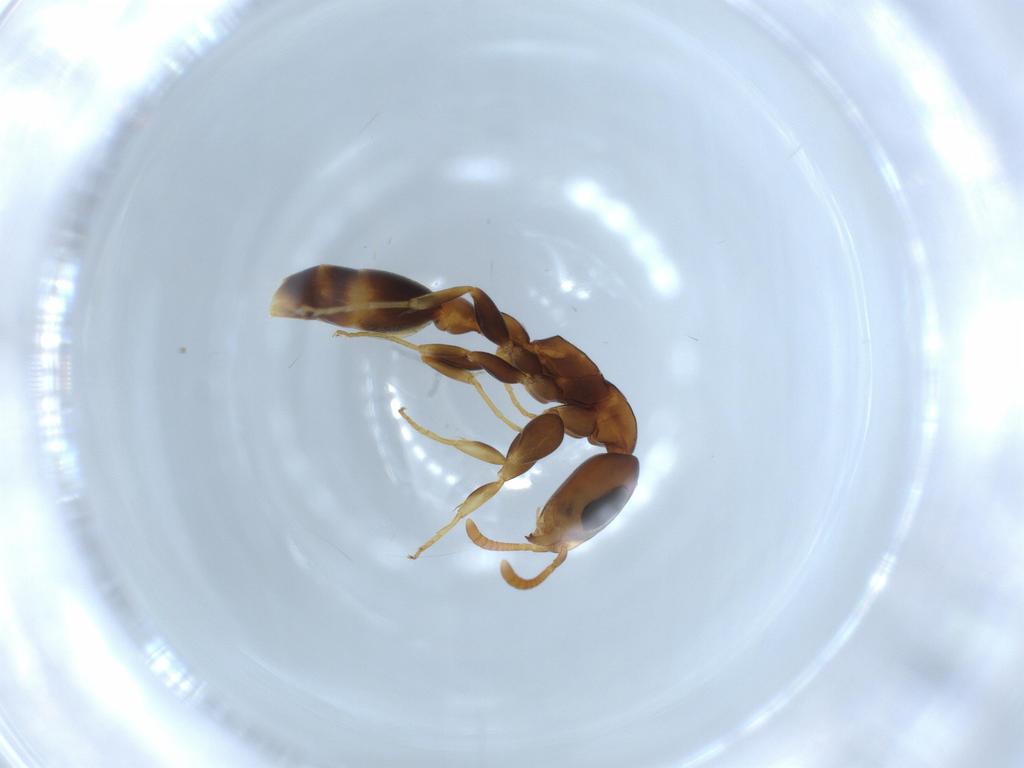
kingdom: Animalia
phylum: Arthropoda
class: Insecta
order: Hymenoptera
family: Formicidae
